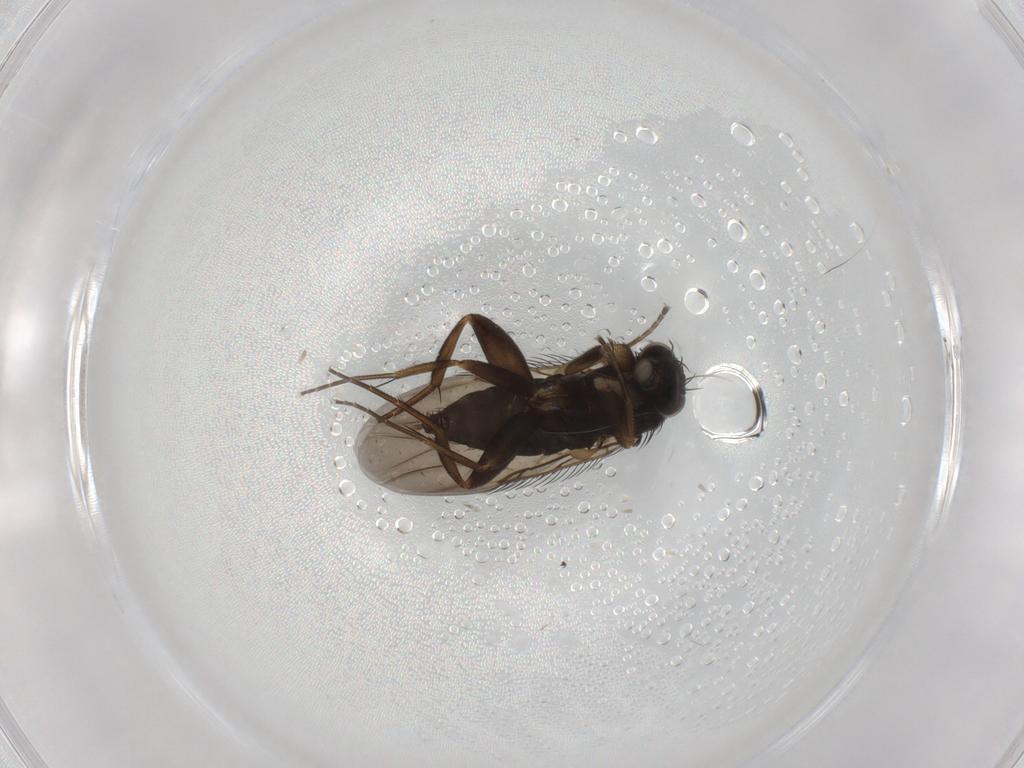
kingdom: Animalia
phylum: Arthropoda
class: Insecta
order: Diptera
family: Phoridae
